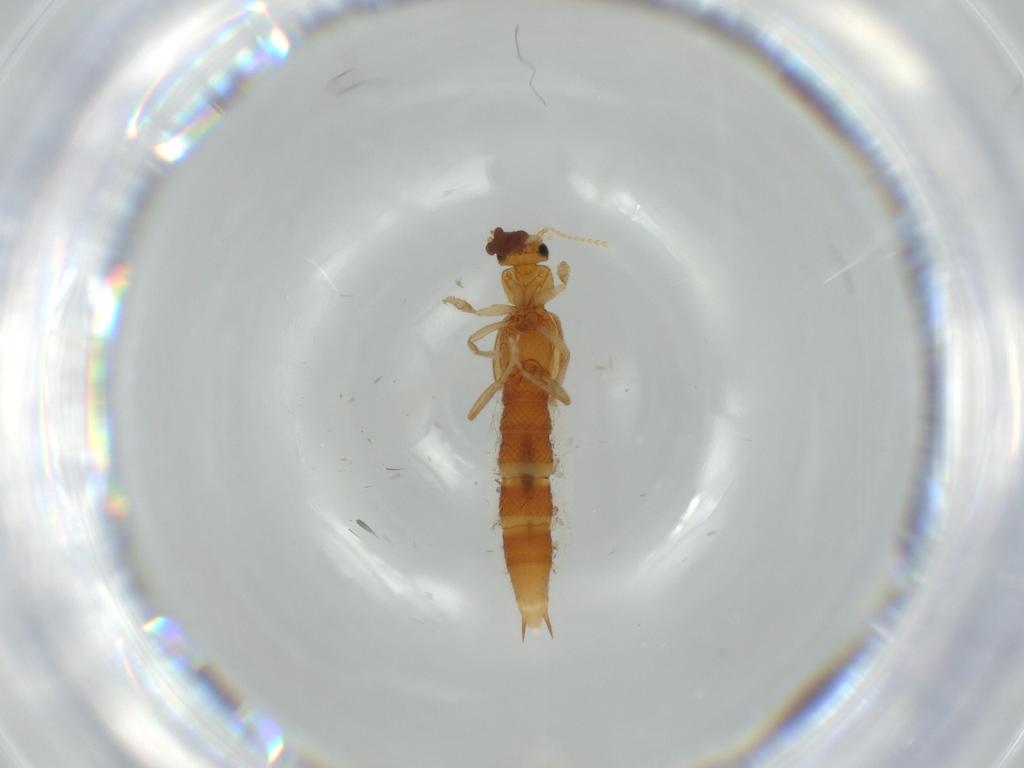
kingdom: Animalia
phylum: Arthropoda
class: Insecta
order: Coleoptera
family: Staphylinidae
